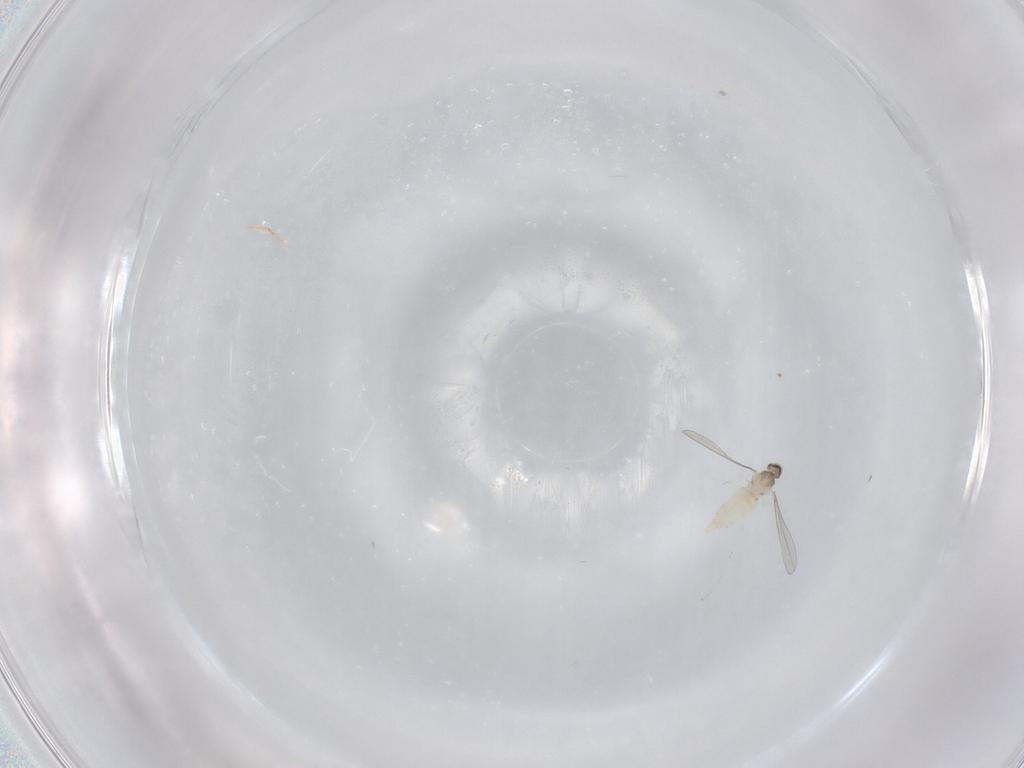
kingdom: Animalia
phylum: Arthropoda
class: Insecta
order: Diptera
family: Cecidomyiidae
